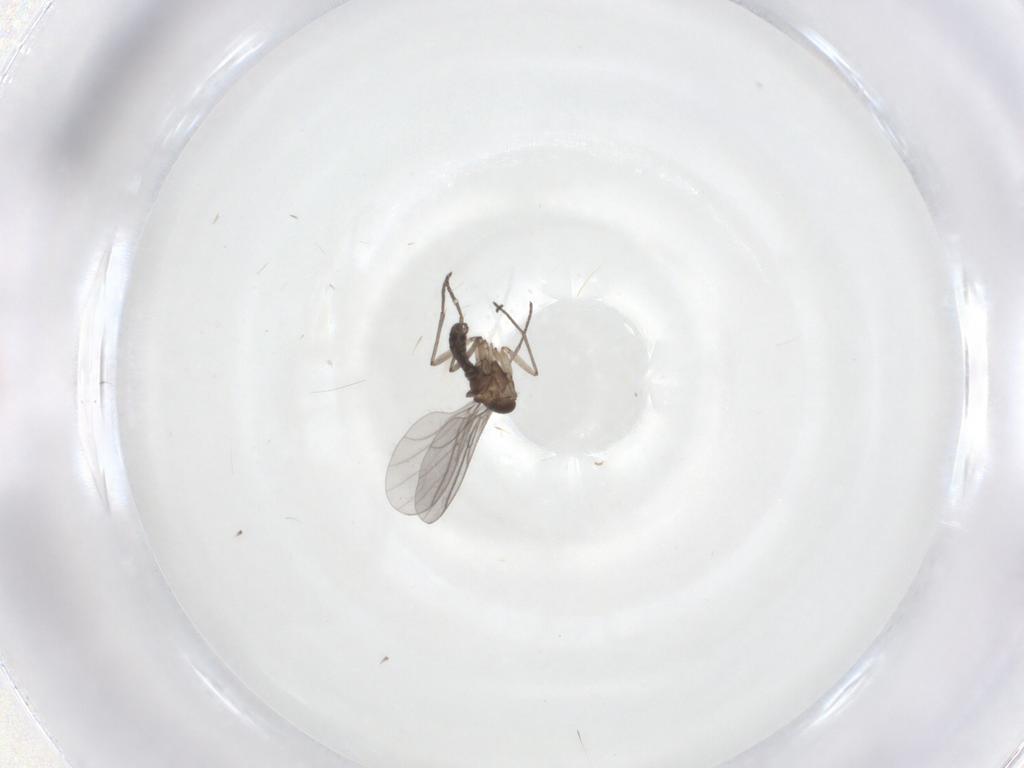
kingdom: Animalia
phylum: Arthropoda
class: Insecta
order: Diptera
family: Sciaridae
